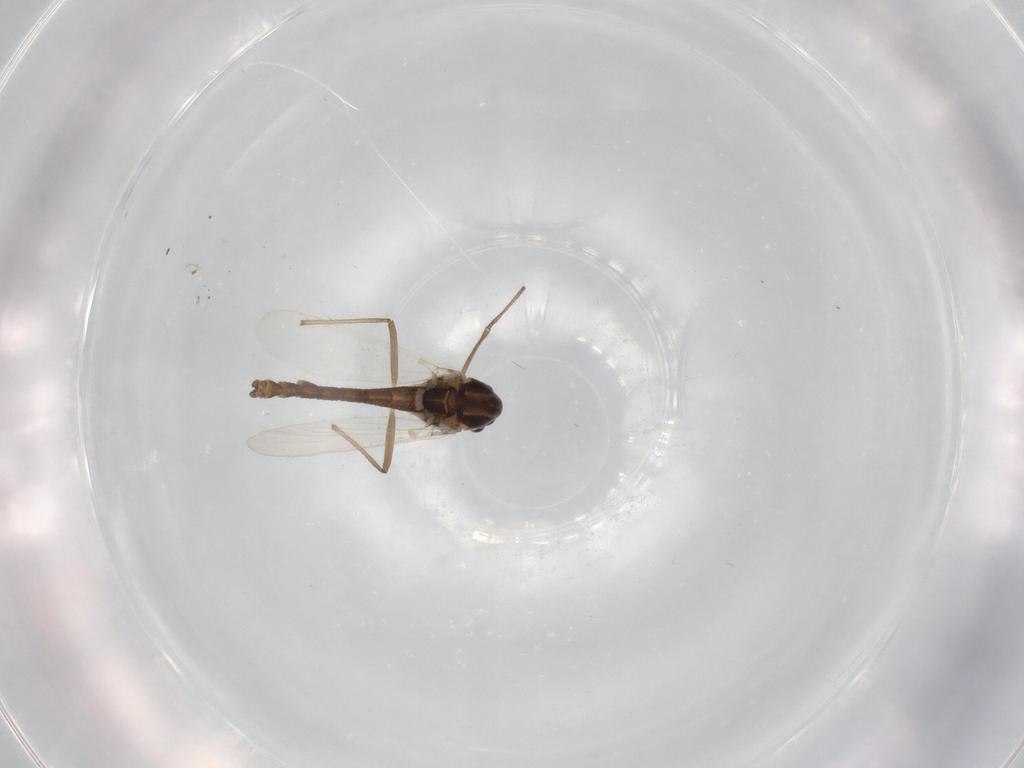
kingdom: Animalia
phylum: Arthropoda
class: Insecta
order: Diptera
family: Chironomidae
